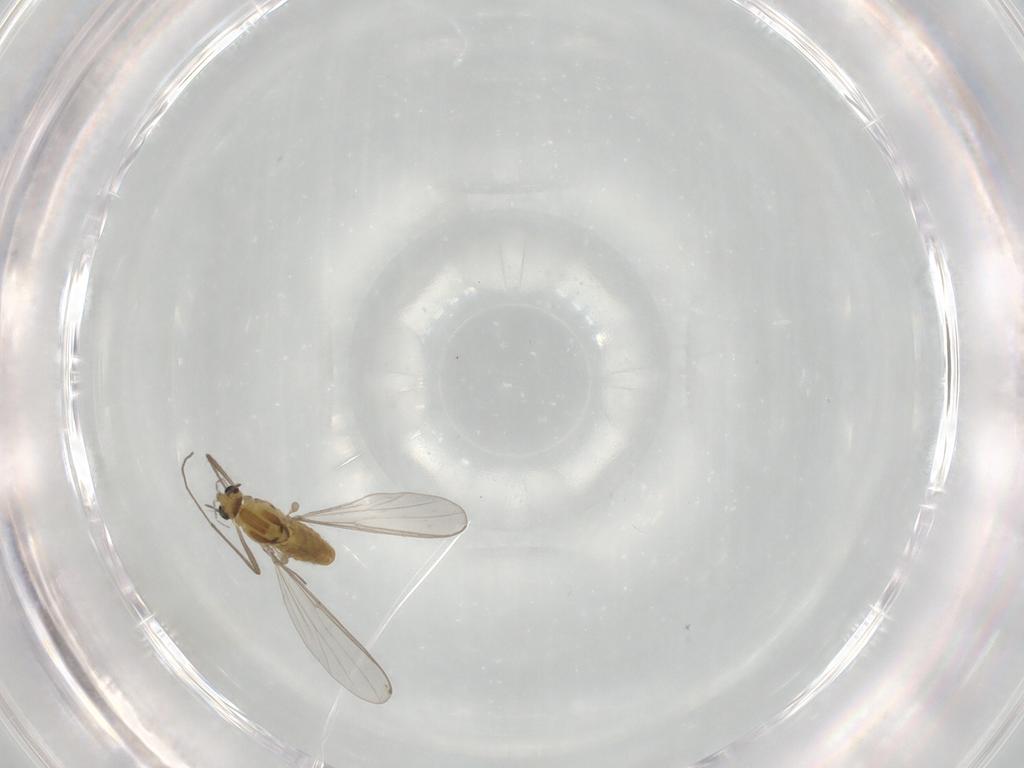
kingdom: Animalia
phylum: Arthropoda
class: Insecta
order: Diptera
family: Chironomidae
